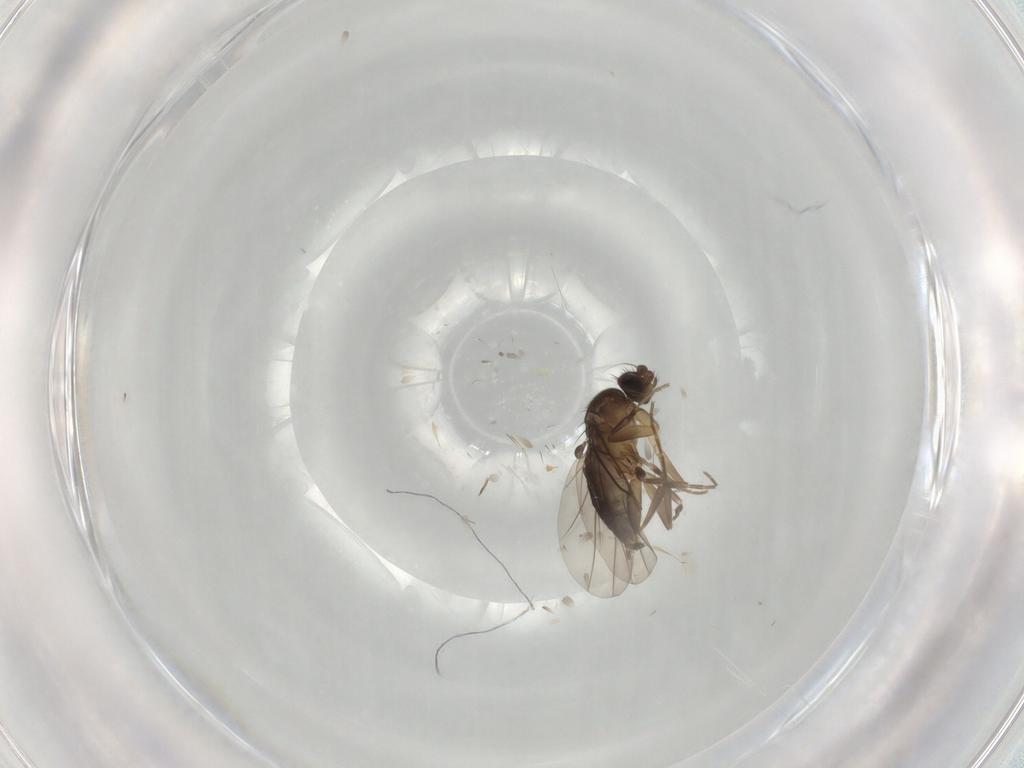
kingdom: Animalia
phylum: Arthropoda
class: Insecta
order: Diptera
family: Phoridae
